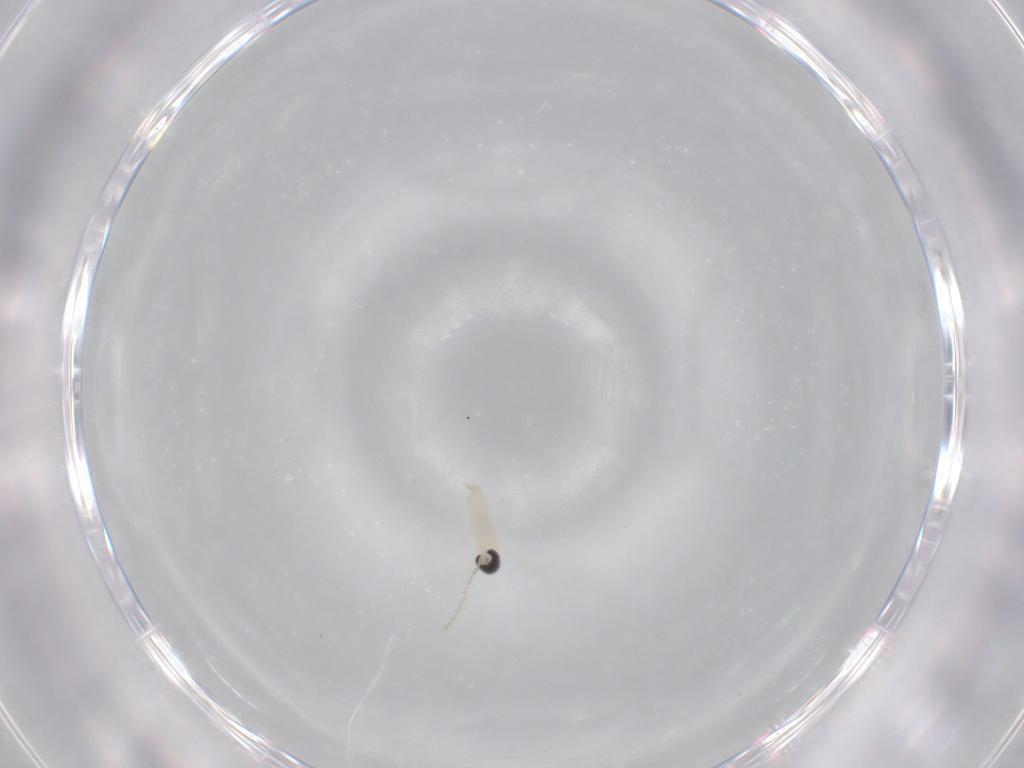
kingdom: Animalia
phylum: Arthropoda
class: Insecta
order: Diptera
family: Cecidomyiidae
